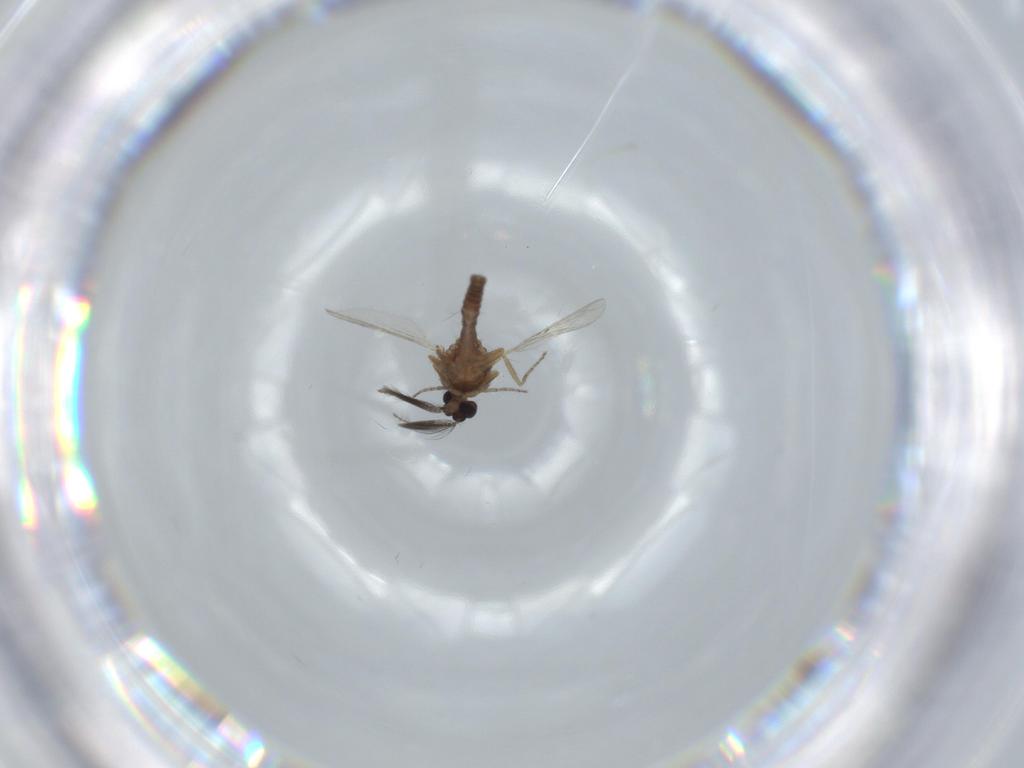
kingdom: Animalia
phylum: Arthropoda
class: Insecta
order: Diptera
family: Ceratopogonidae
